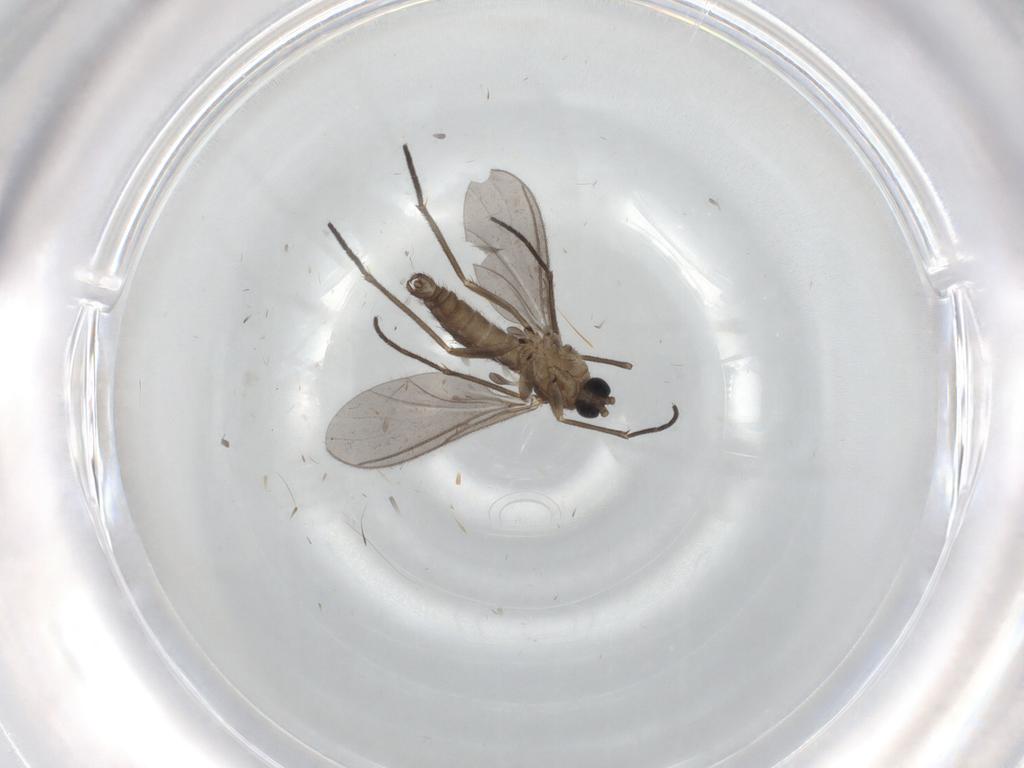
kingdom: Animalia
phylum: Arthropoda
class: Insecta
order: Diptera
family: Sciaridae
